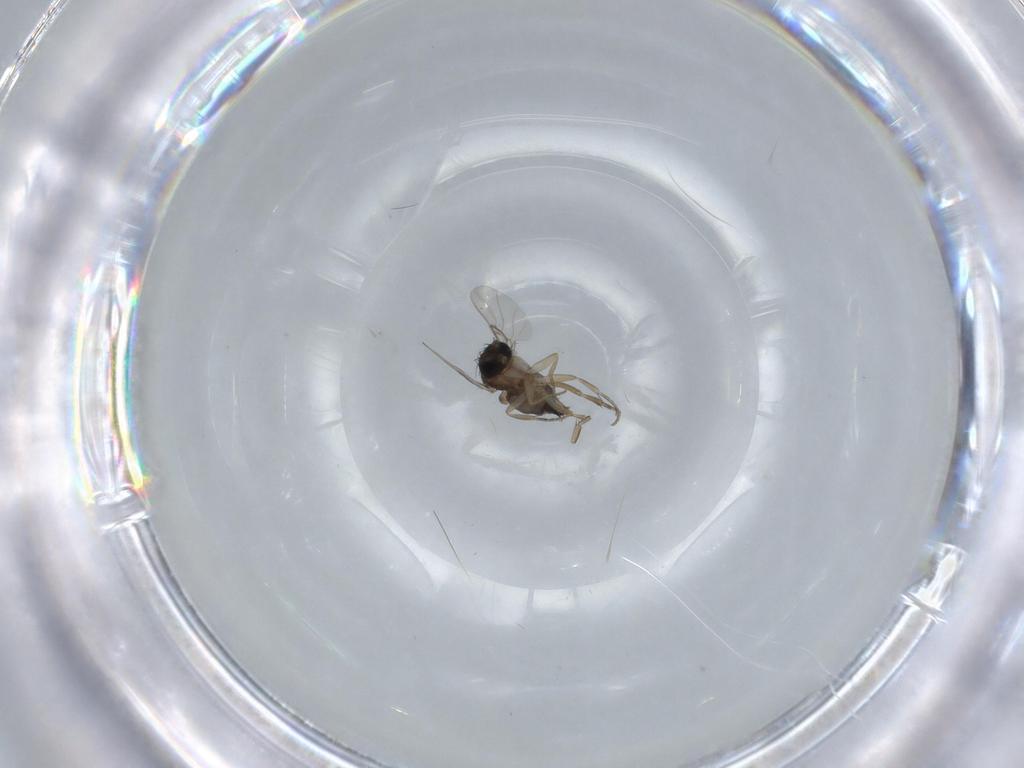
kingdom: Animalia
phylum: Arthropoda
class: Insecta
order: Diptera
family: Phoridae
